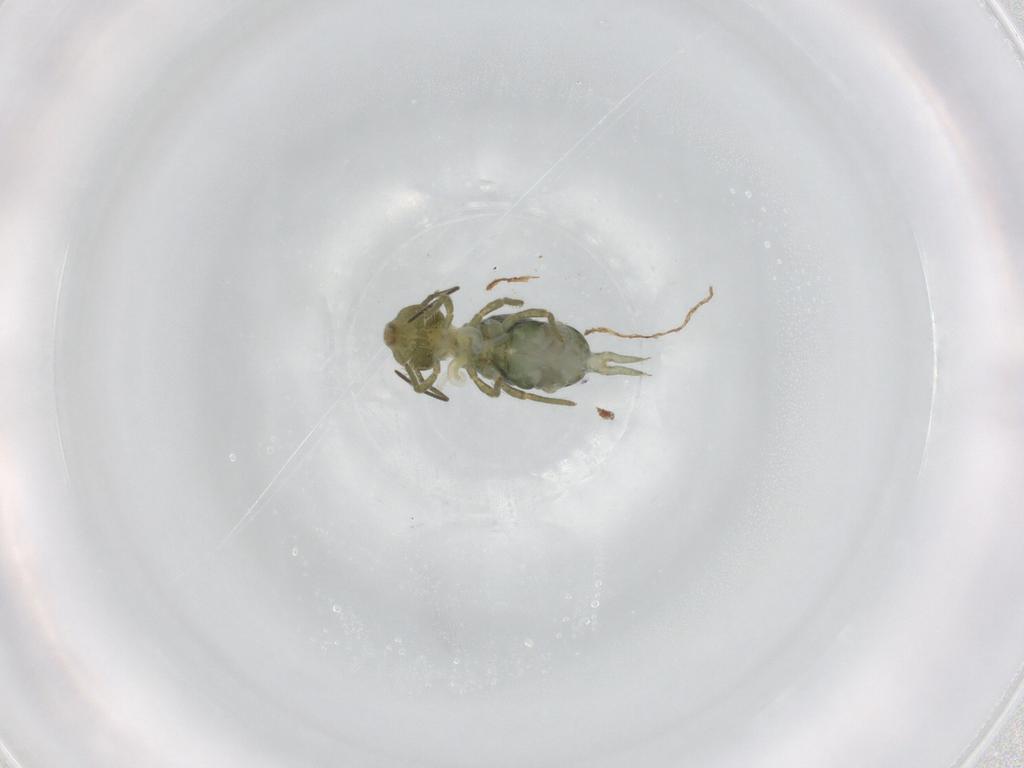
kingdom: Animalia
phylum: Arthropoda
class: Collembola
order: Symphypleona
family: Sminthuridae
